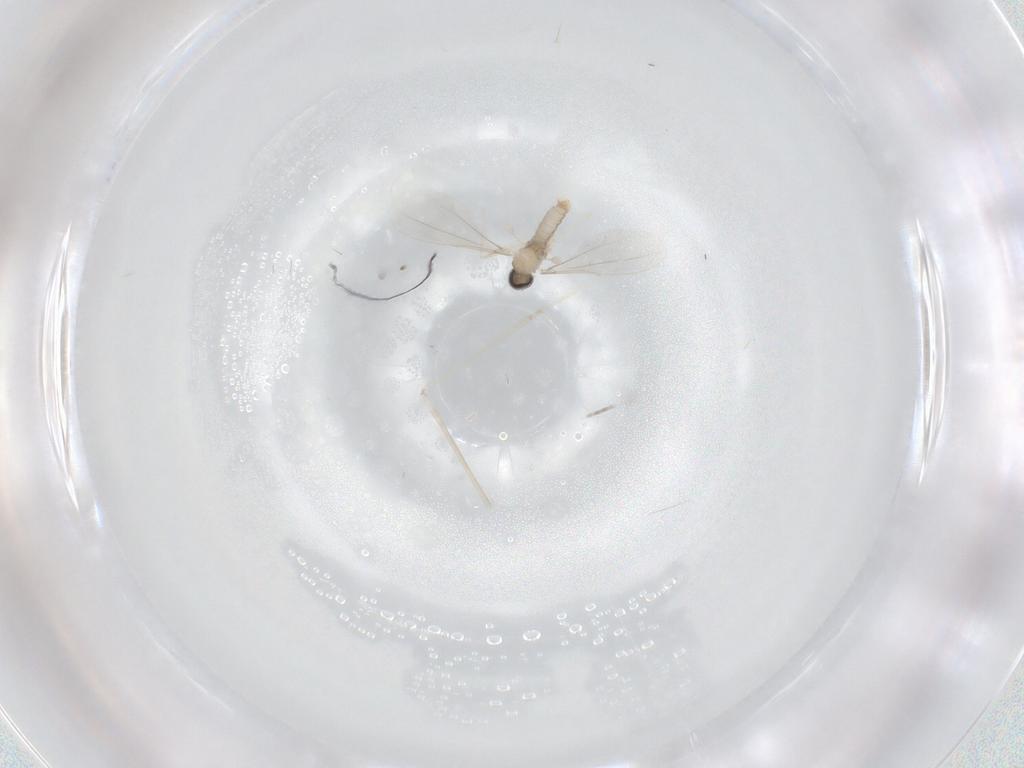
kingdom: Animalia
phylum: Arthropoda
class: Insecta
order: Diptera
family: Cecidomyiidae
